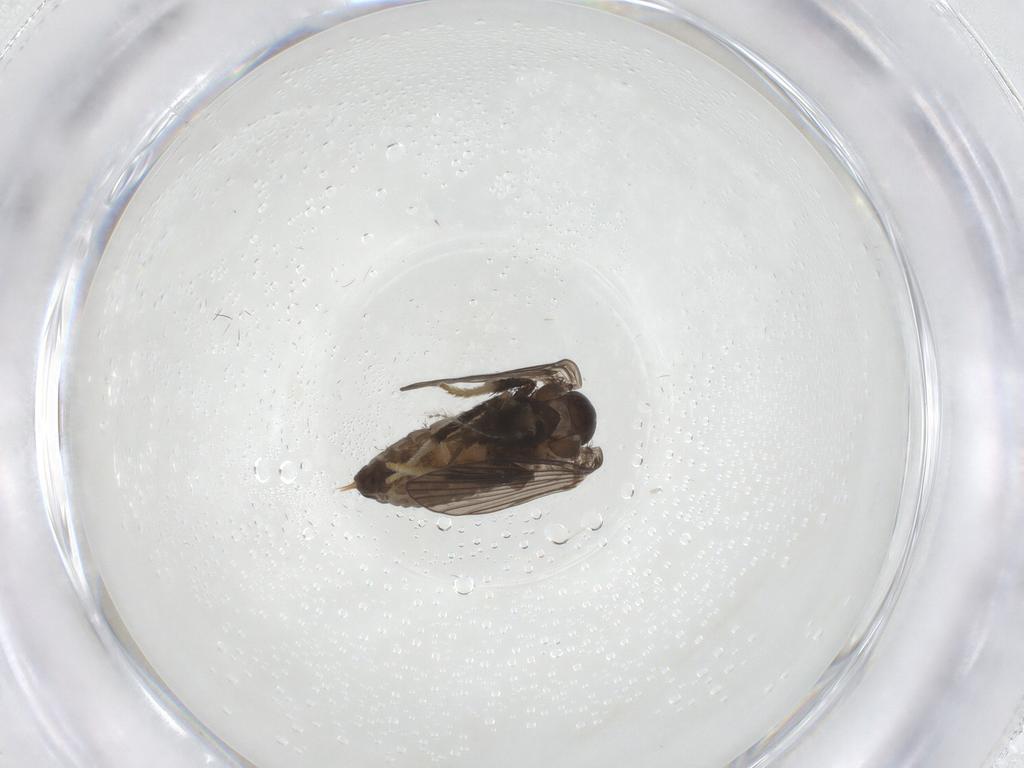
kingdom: Animalia
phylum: Arthropoda
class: Insecta
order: Diptera
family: Psychodidae
